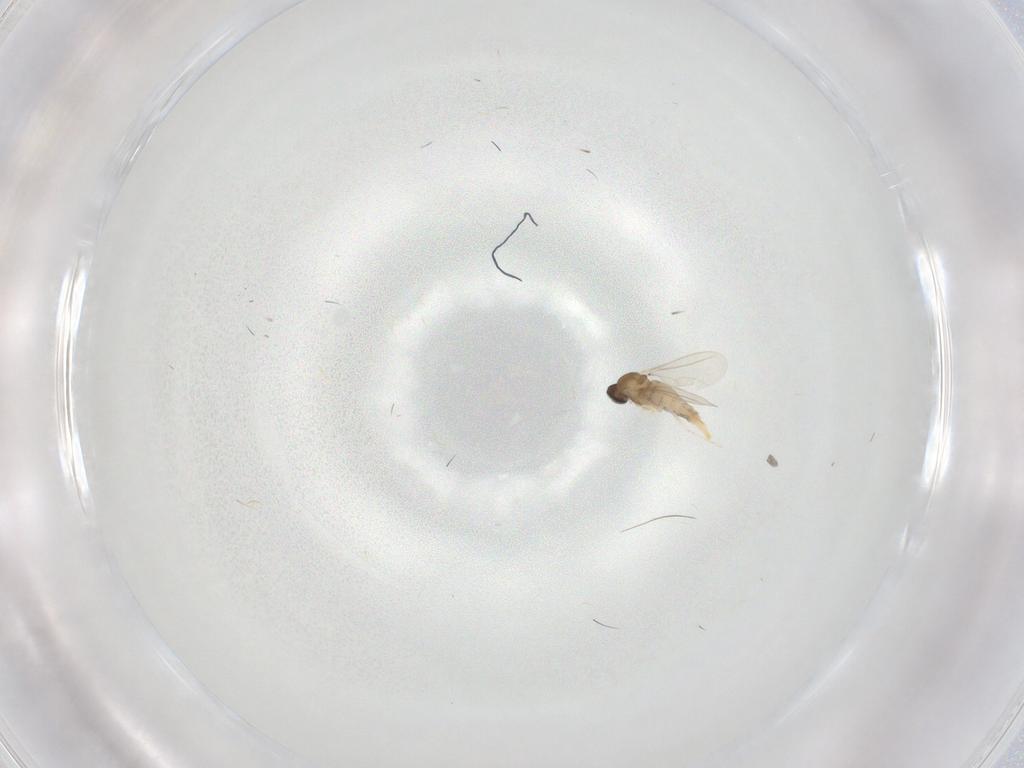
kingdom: Animalia
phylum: Arthropoda
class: Insecta
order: Diptera
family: Cecidomyiidae
